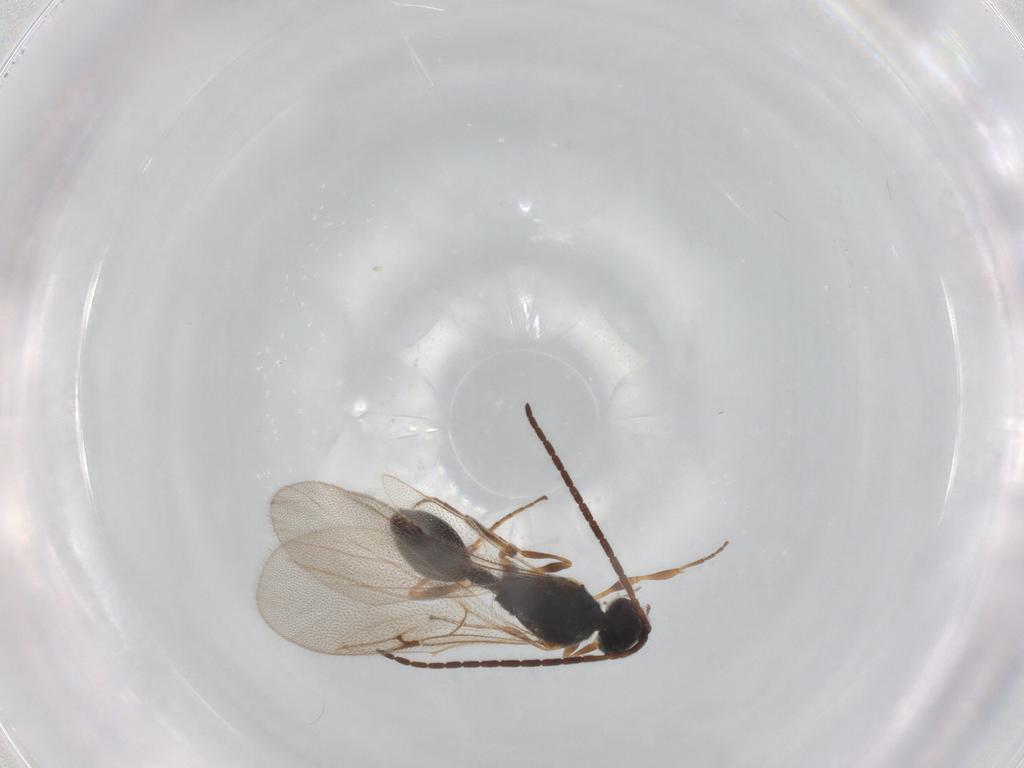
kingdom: Animalia
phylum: Arthropoda
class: Insecta
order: Hymenoptera
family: Diapriidae
